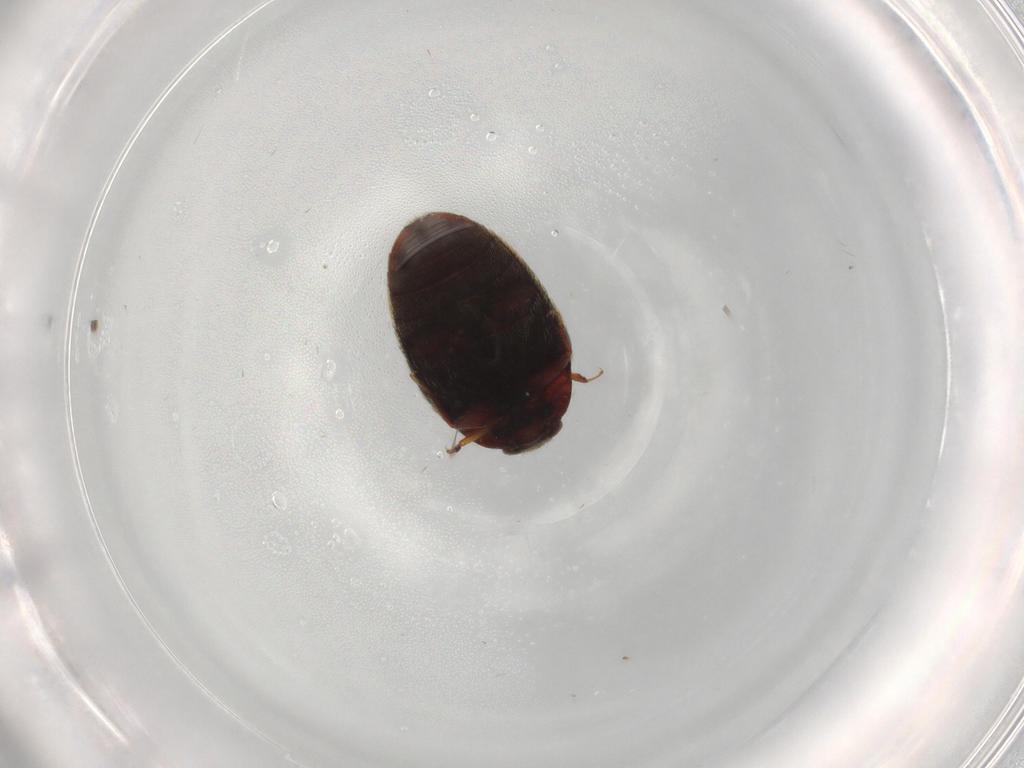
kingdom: Animalia
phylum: Arthropoda
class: Insecta
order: Coleoptera
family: Dermestidae
